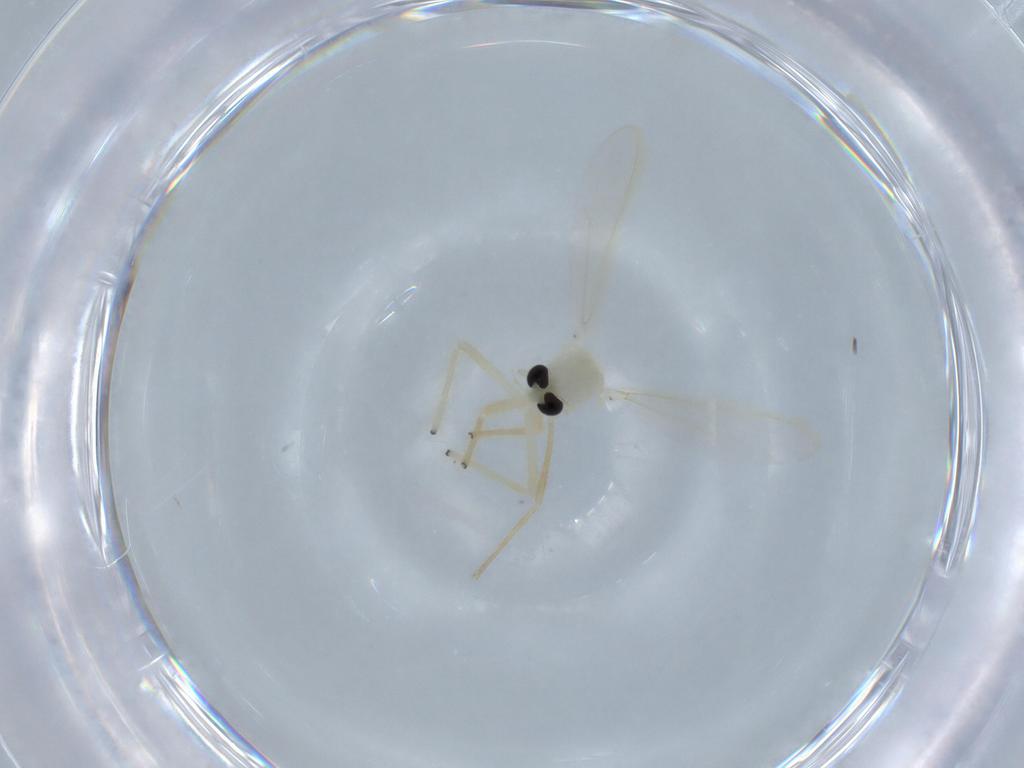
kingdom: Animalia
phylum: Arthropoda
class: Insecta
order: Diptera
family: Chironomidae
